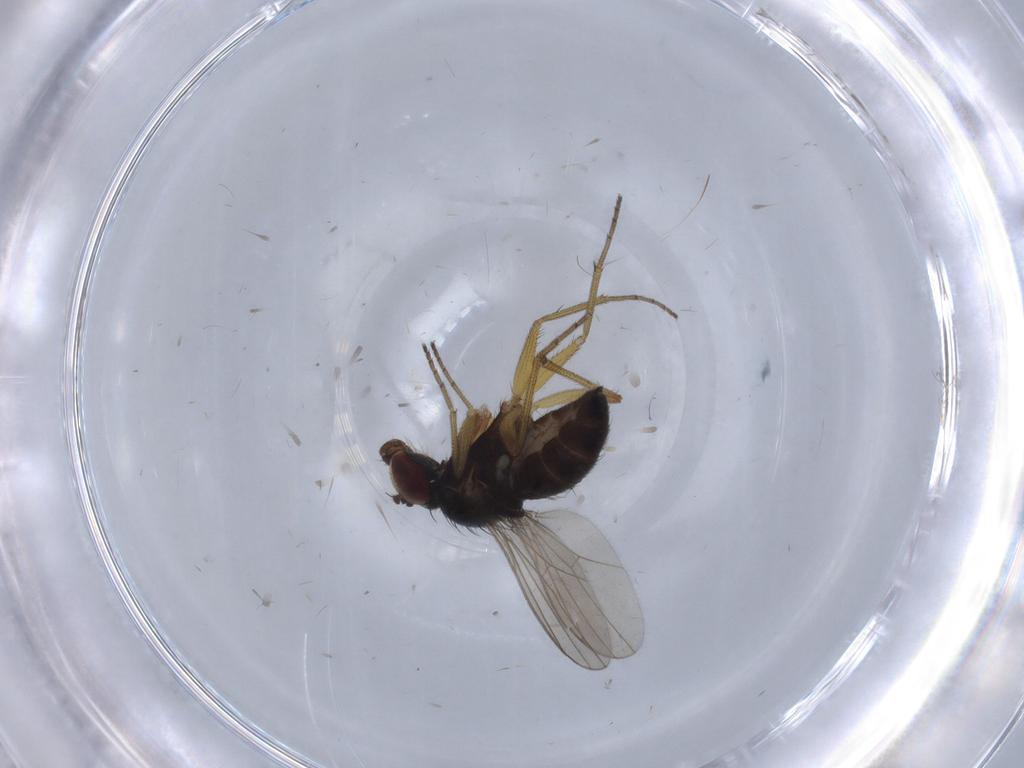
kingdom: Animalia
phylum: Arthropoda
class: Insecta
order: Diptera
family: Dolichopodidae
